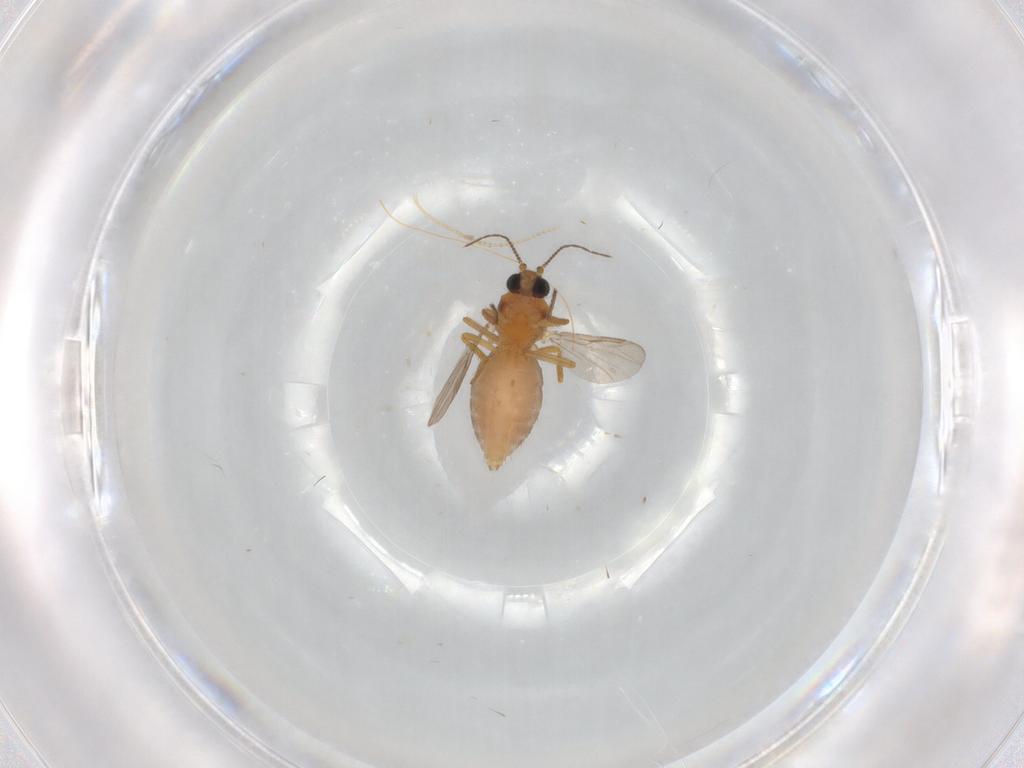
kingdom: Animalia
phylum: Arthropoda
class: Insecta
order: Diptera
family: Ceratopogonidae
